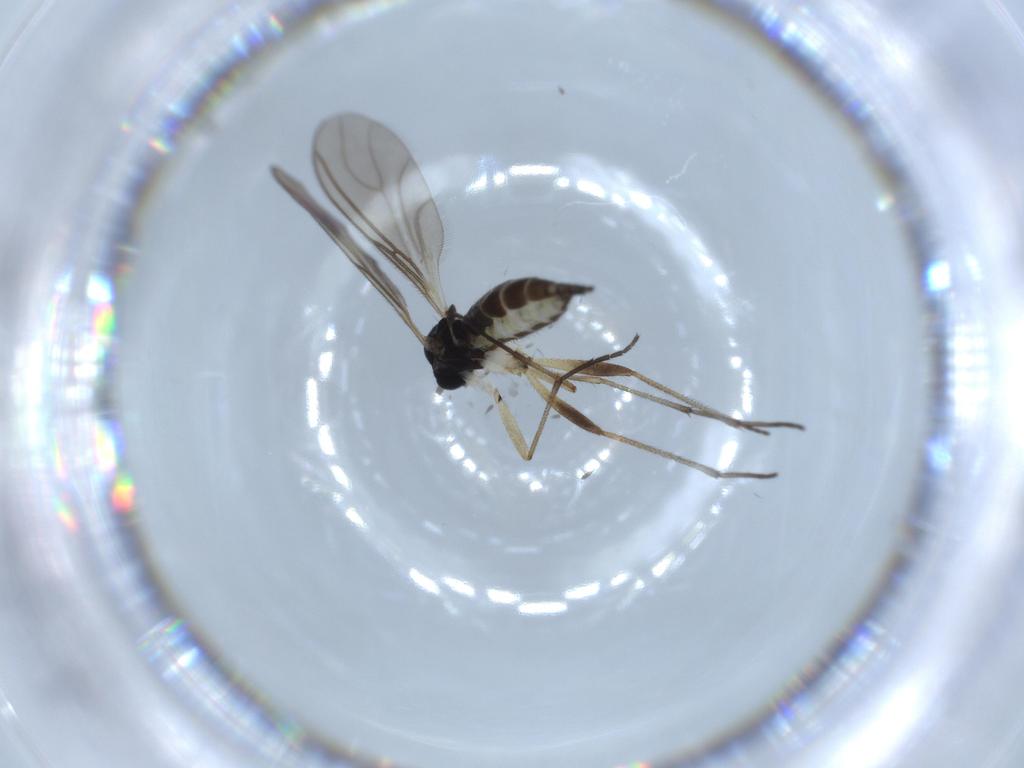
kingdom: Animalia
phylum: Arthropoda
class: Insecta
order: Diptera
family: Sciaridae
